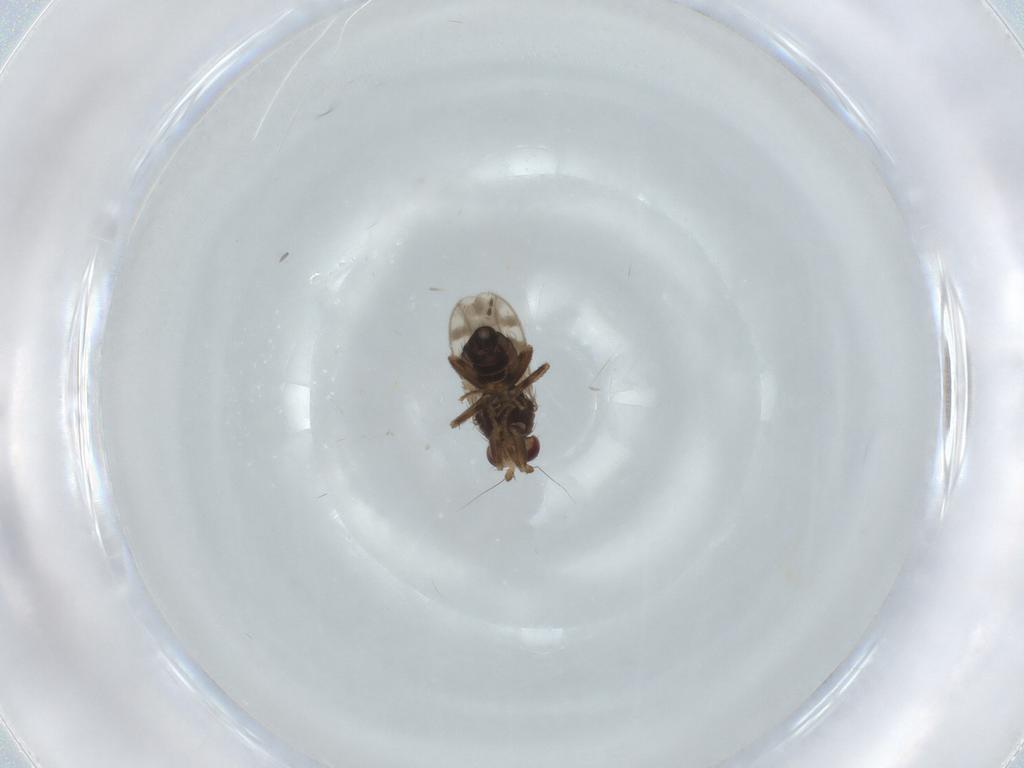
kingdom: Animalia
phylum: Arthropoda
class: Insecta
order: Diptera
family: Sphaeroceridae
